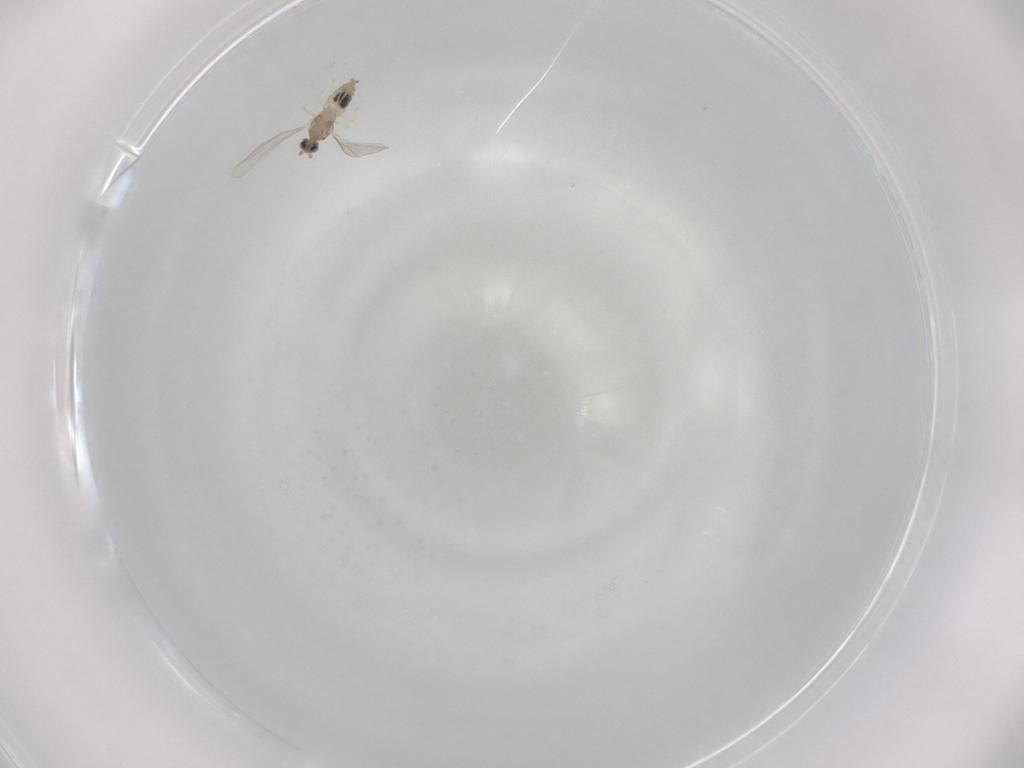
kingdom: Animalia
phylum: Arthropoda
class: Insecta
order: Diptera
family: Cecidomyiidae
